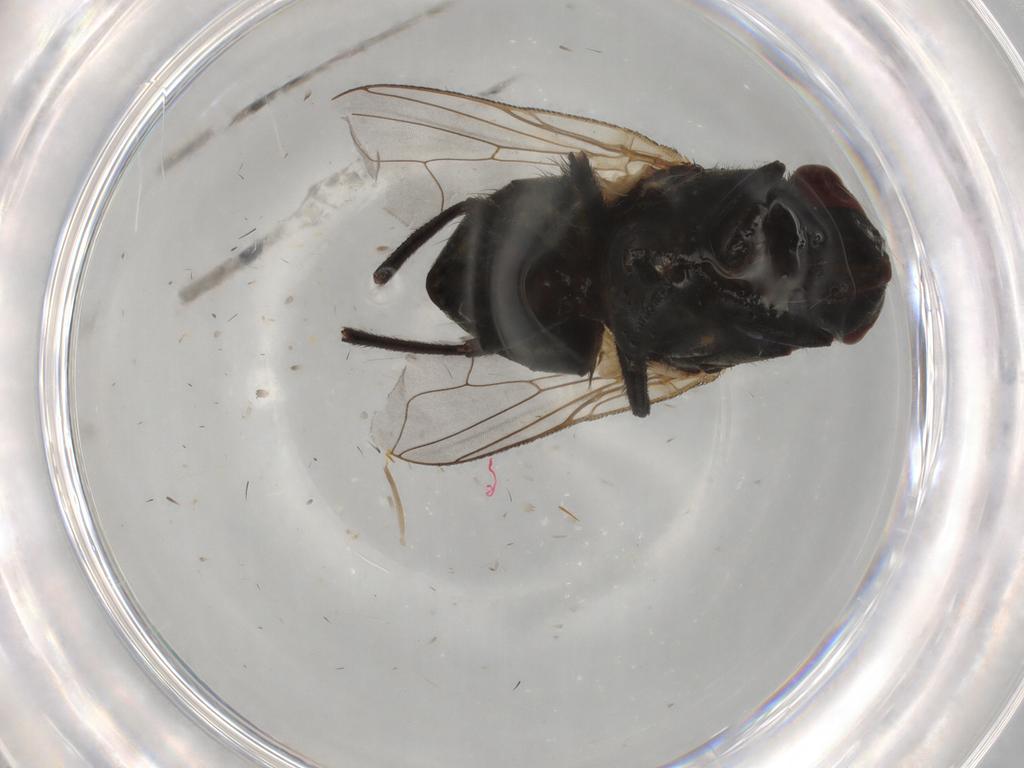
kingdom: Animalia
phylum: Arthropoda
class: Insecta
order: Diptera
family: Muscidae
